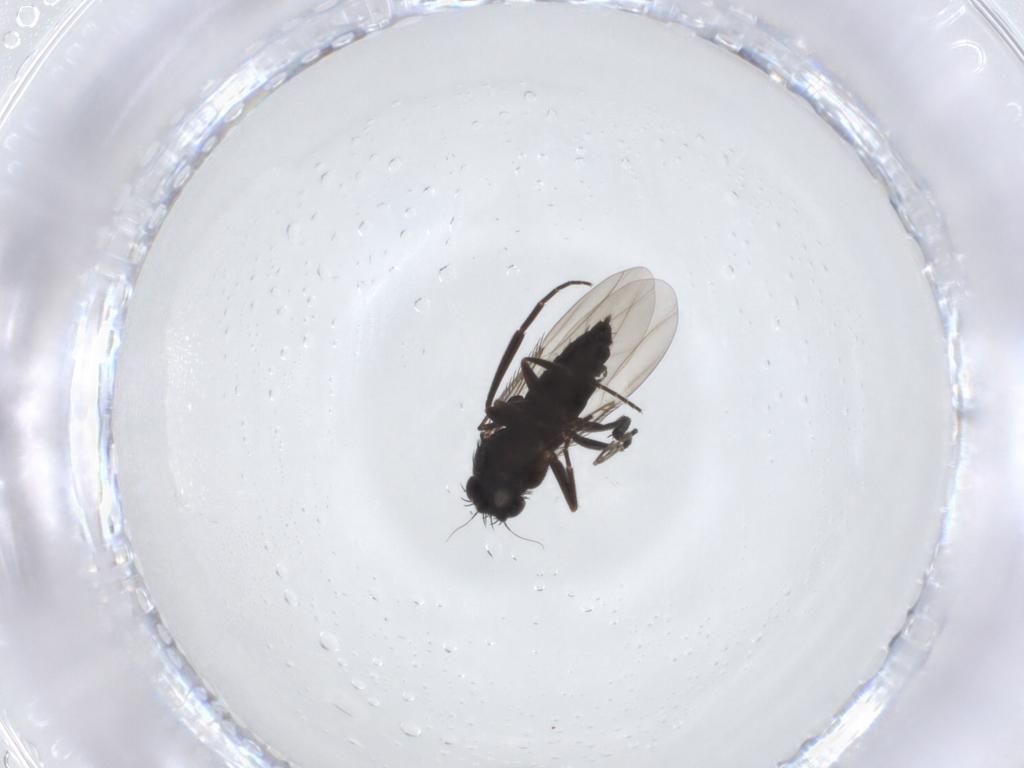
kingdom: Animalia
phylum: Arthropoda
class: Insecta
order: Diptera
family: Phoridae
